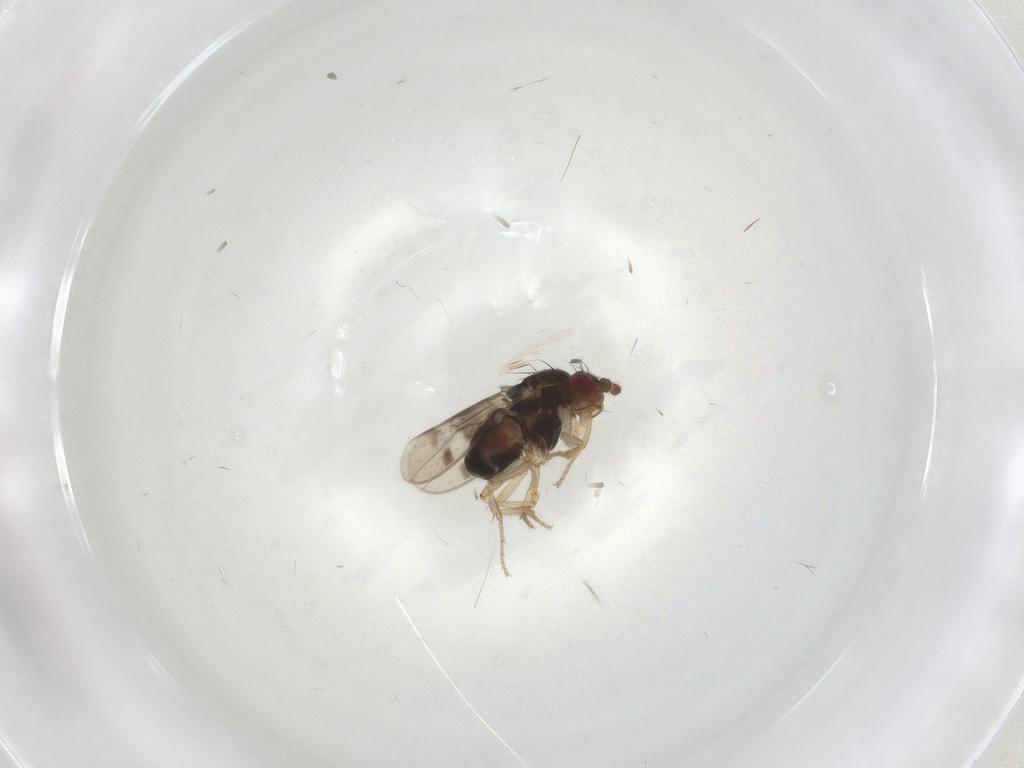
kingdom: Animalia
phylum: Arthropoda
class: Insecta
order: Diptera
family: Sphaeroceridae
